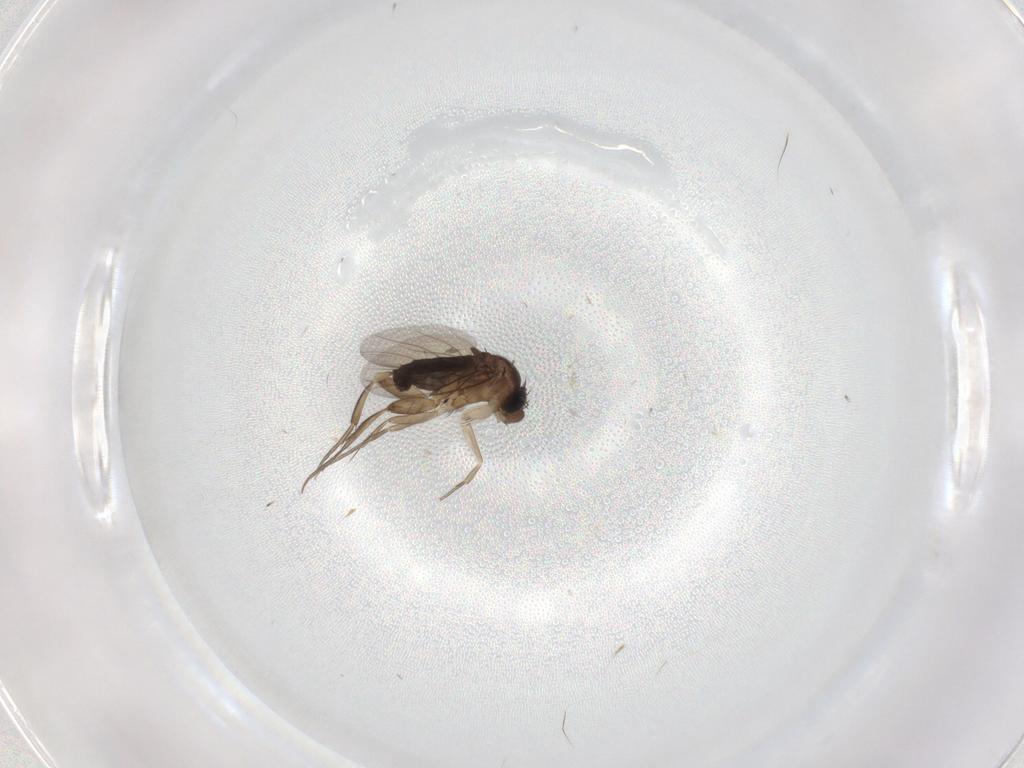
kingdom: Animalia
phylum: Arthropoda
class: Insecta
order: Diptera
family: Phoridae
